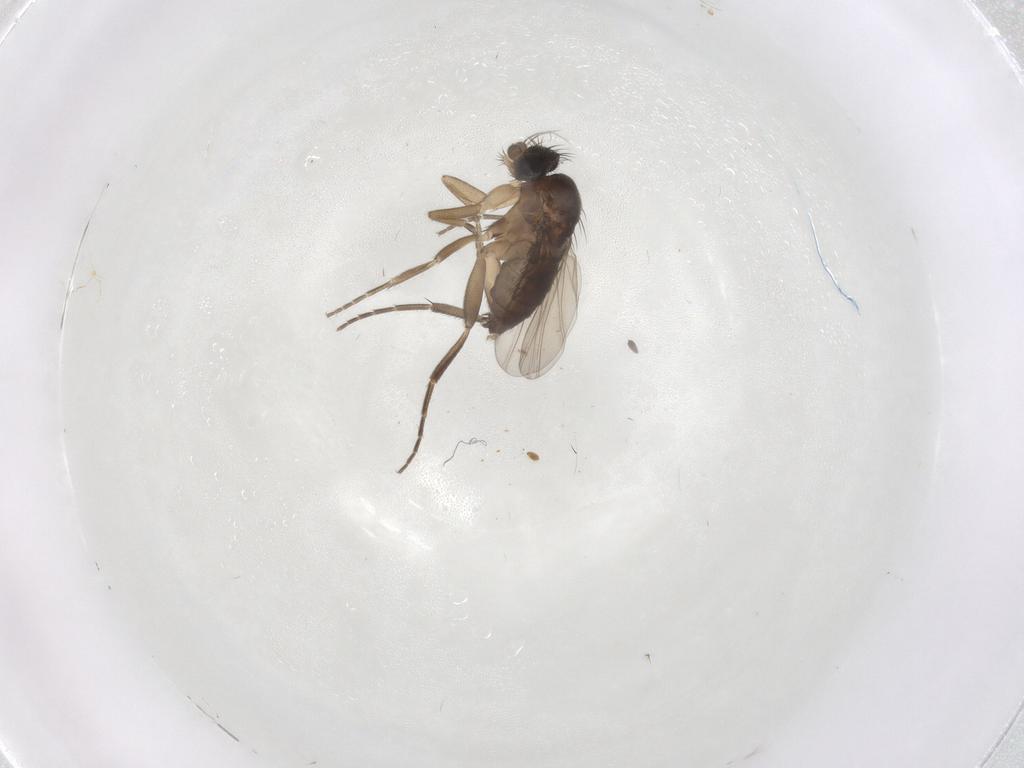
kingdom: Animalia
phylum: Arthropoda
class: Insecta
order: Diptera
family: Phoridae
